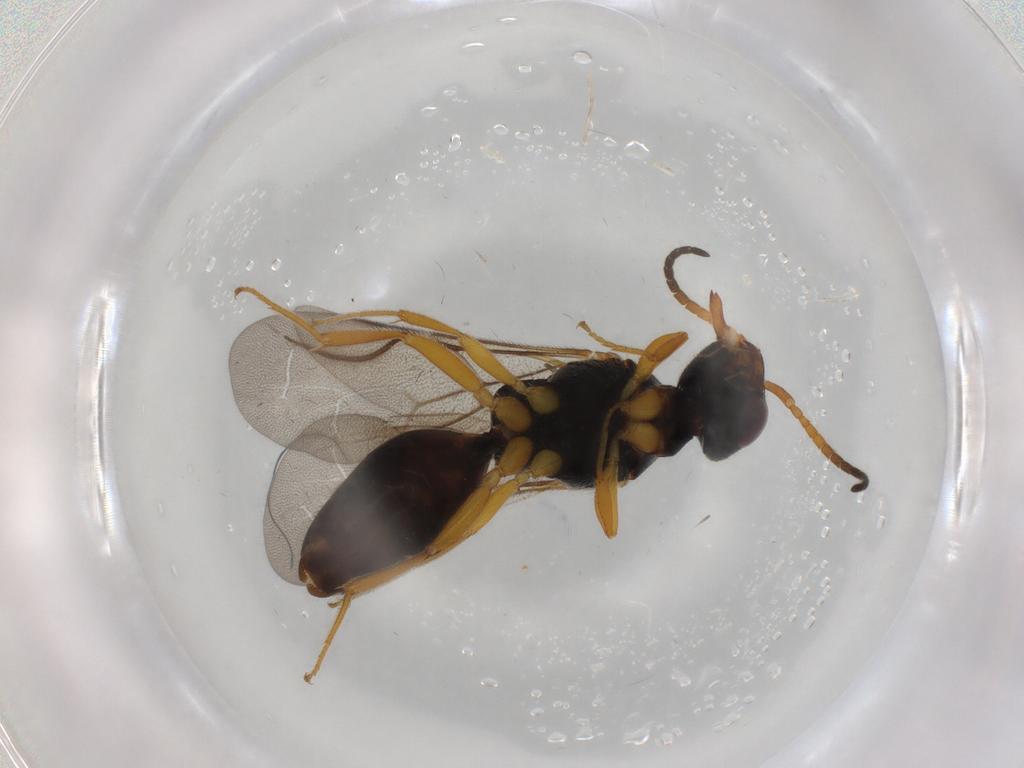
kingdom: Animalia
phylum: Arthropoda
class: Insecta
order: Hymenoptera
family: Bethylidae
